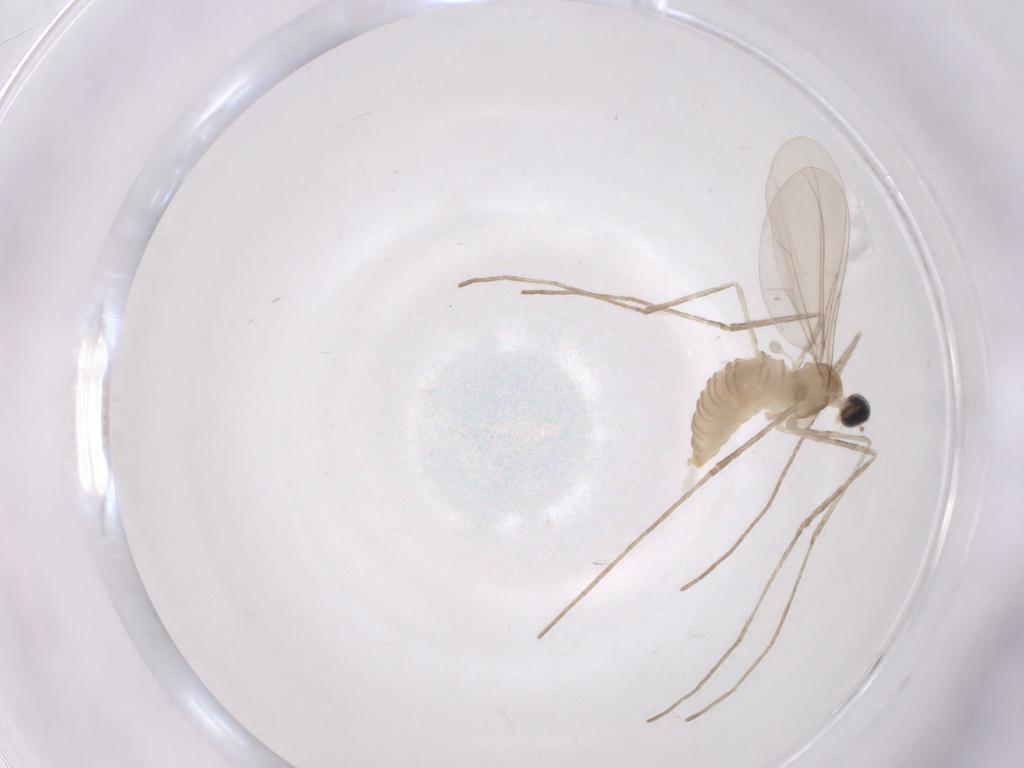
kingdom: Animalia
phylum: Arthropoda
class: Insecta
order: Diptera
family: Cecidomyiidae
